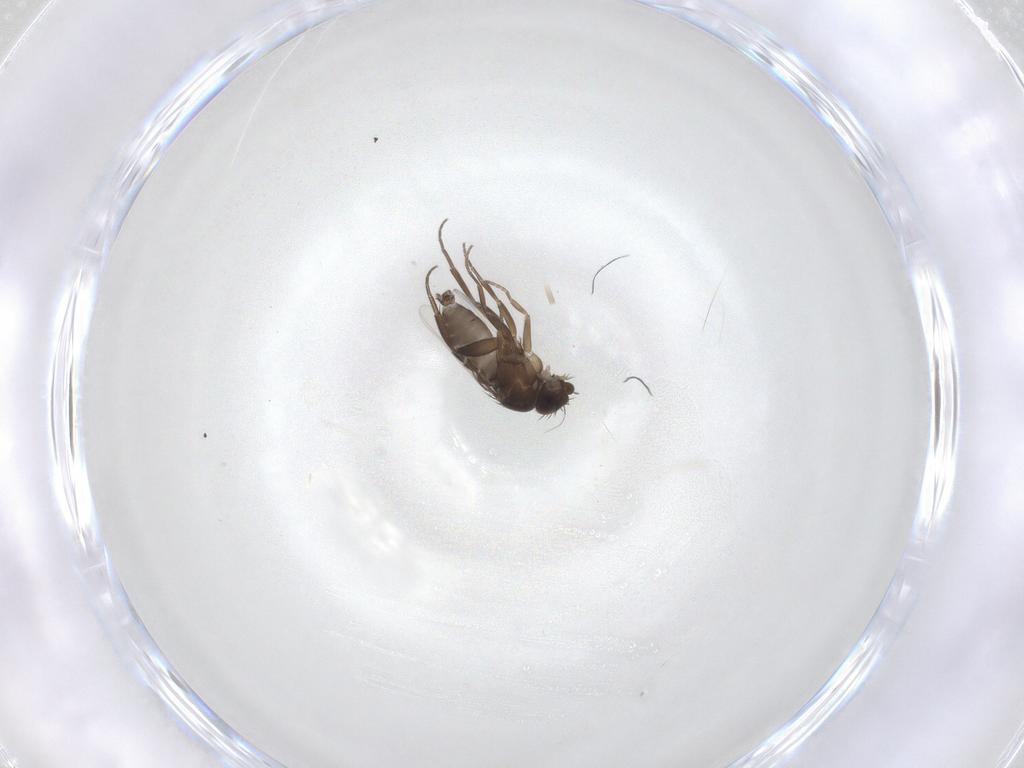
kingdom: Animalia
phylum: Arthropoda
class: Insecta
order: Diptera
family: Phoridae
